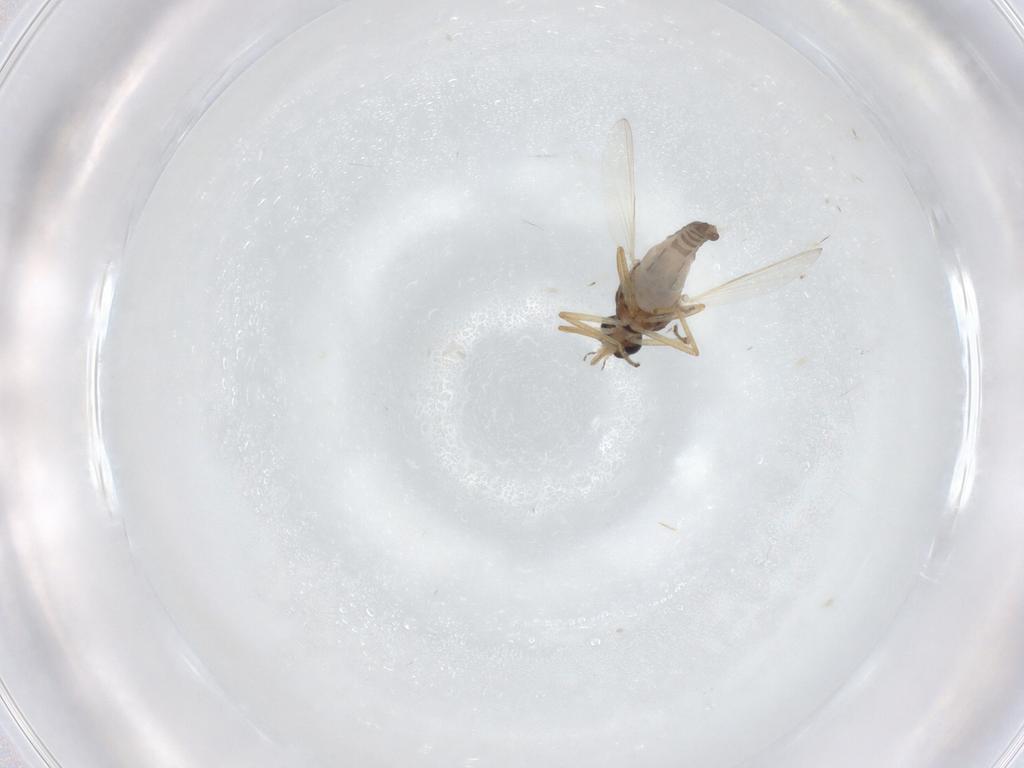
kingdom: Animalia
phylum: Arthropoda
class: Insecta
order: Diptera
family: Ceratopogonidae
